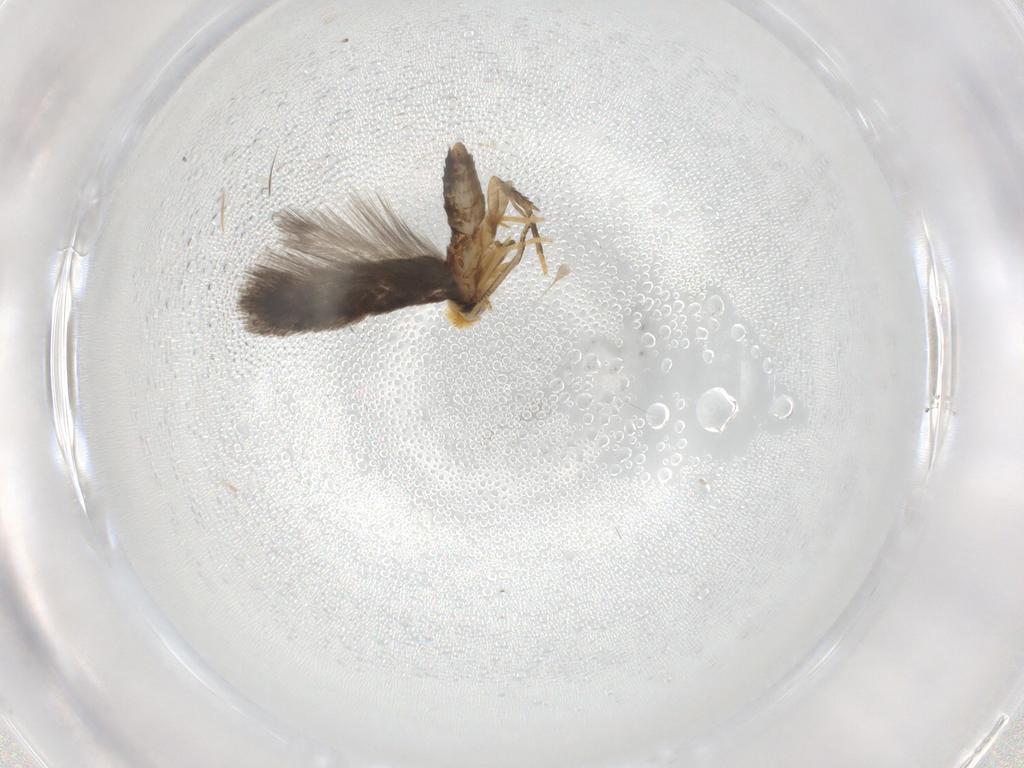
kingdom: Animalia
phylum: Arthropoda
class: Insecta
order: Lepidoptera
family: Nepticulidae
